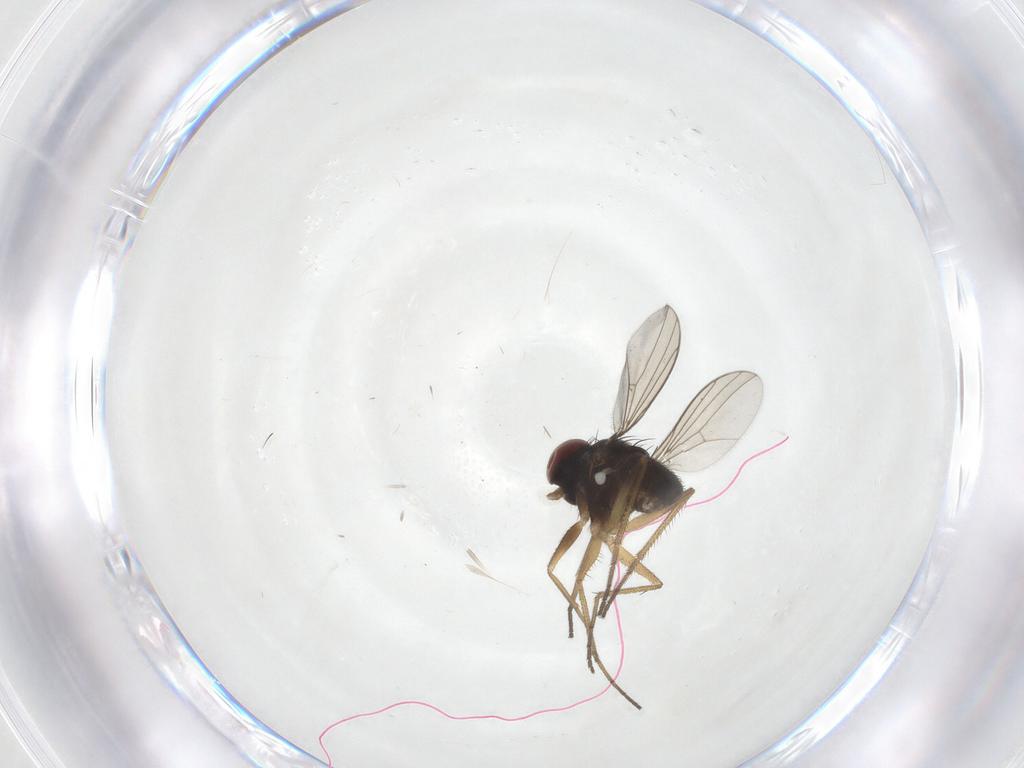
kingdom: Animalia
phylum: Arthropoda
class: Insecta
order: Diptera
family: Dolichopodidae
